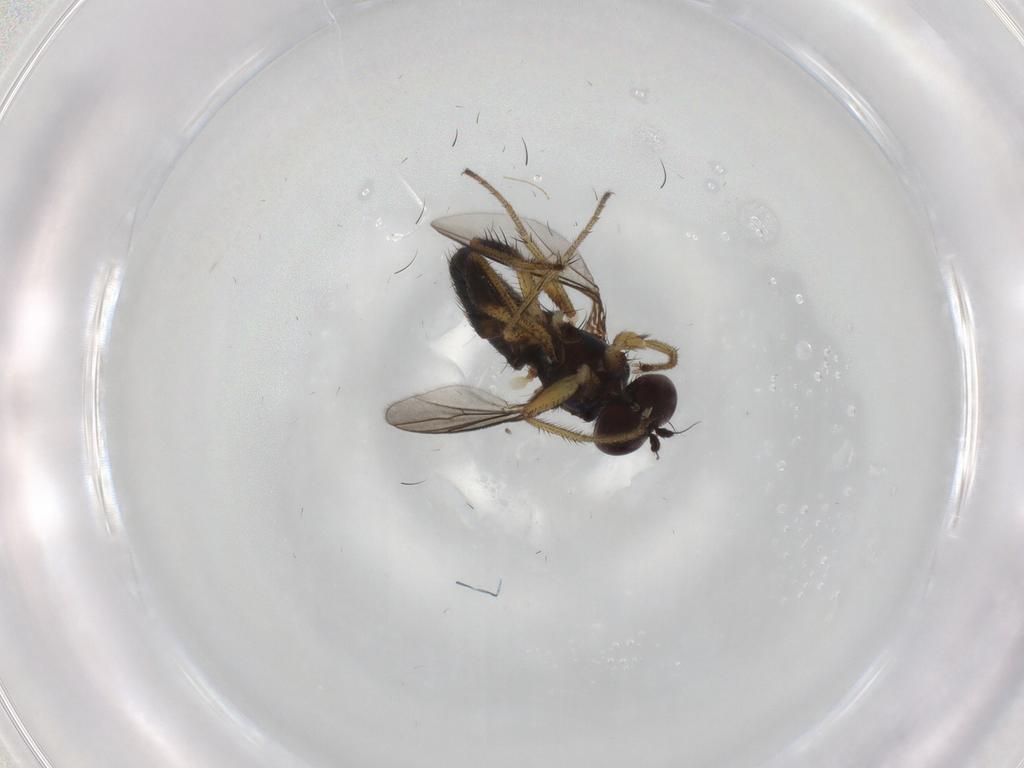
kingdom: Animalia
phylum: Arthropoda
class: Insecta
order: Diptera
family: Dolichopodidae
